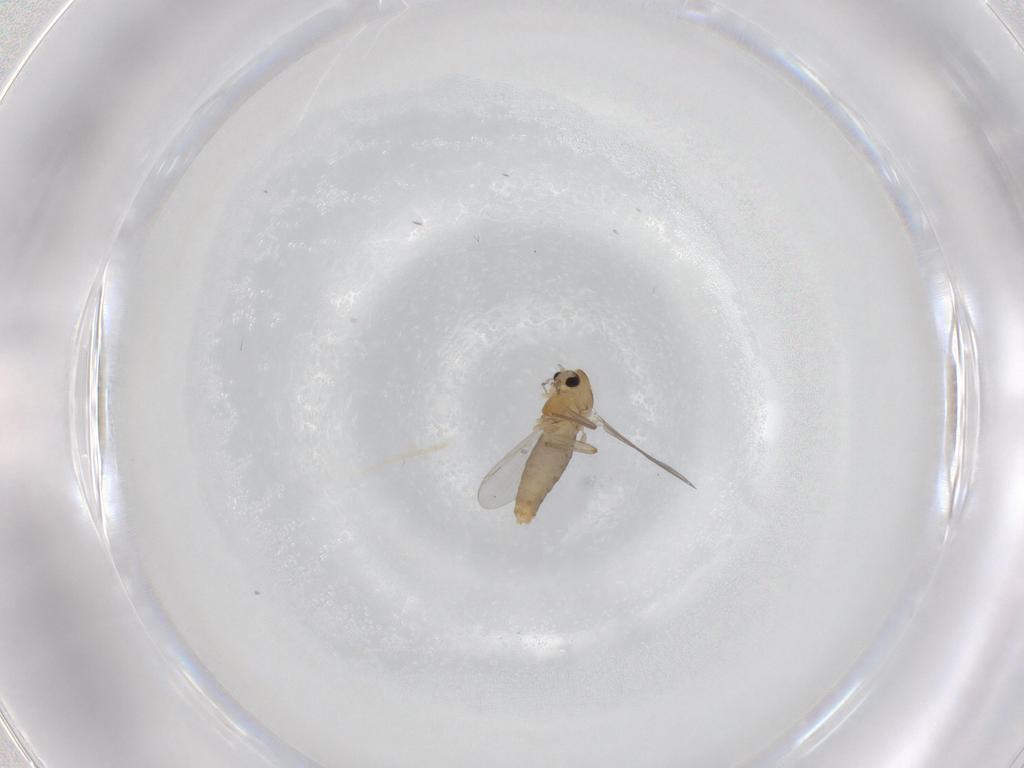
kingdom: Animalia
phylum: Arthropoda
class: Insecta
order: Diptera
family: Chironomidae
